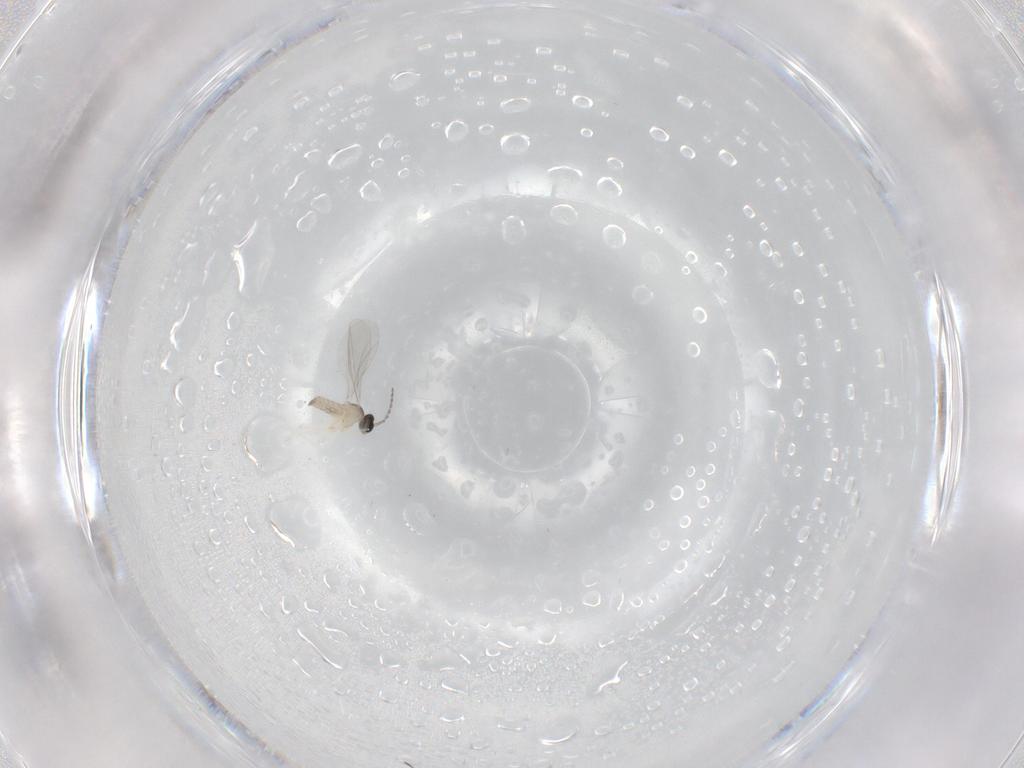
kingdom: Animalia
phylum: Arthropoda
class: Insecta
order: Diptera
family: Cecidomyiidae
